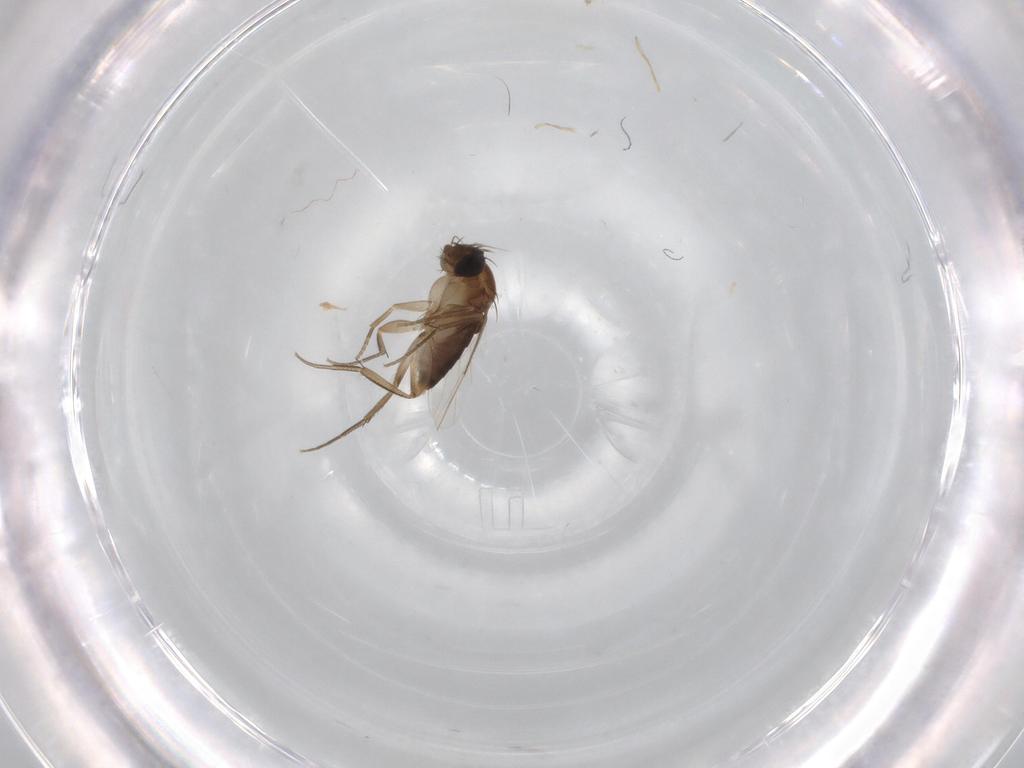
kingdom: Animalia
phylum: Arthropoda
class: Insecta
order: Diptera
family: Phoridae
